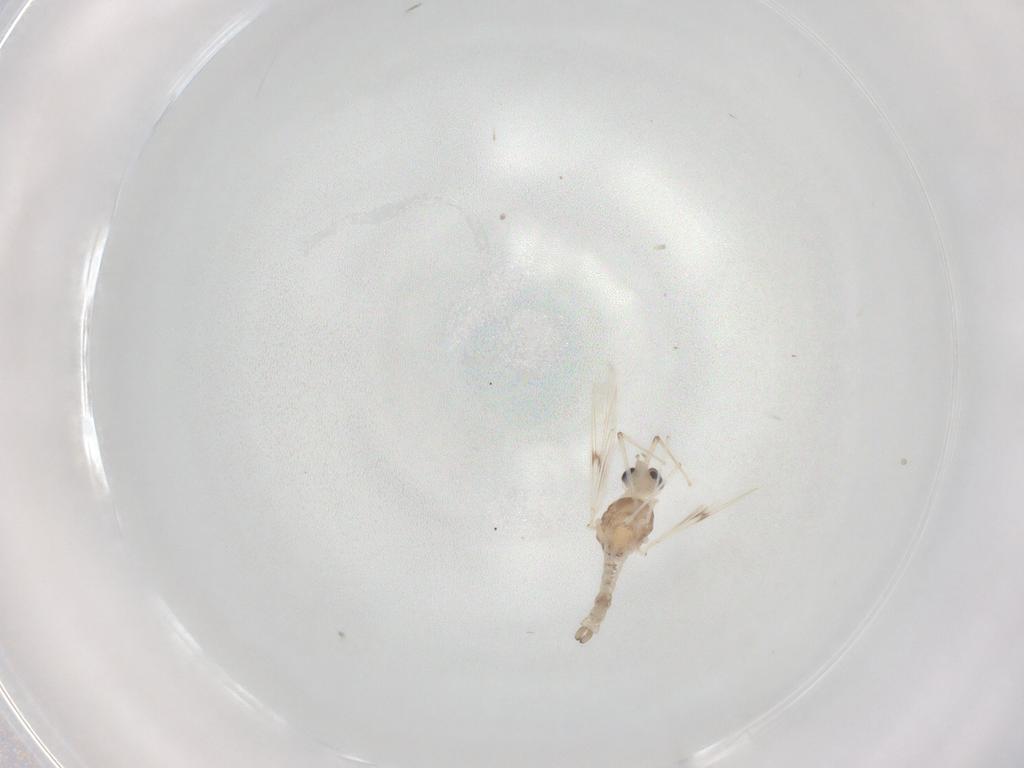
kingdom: Animalia
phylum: Arthropoda
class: Insecta
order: Diptera
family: Chironomidae
